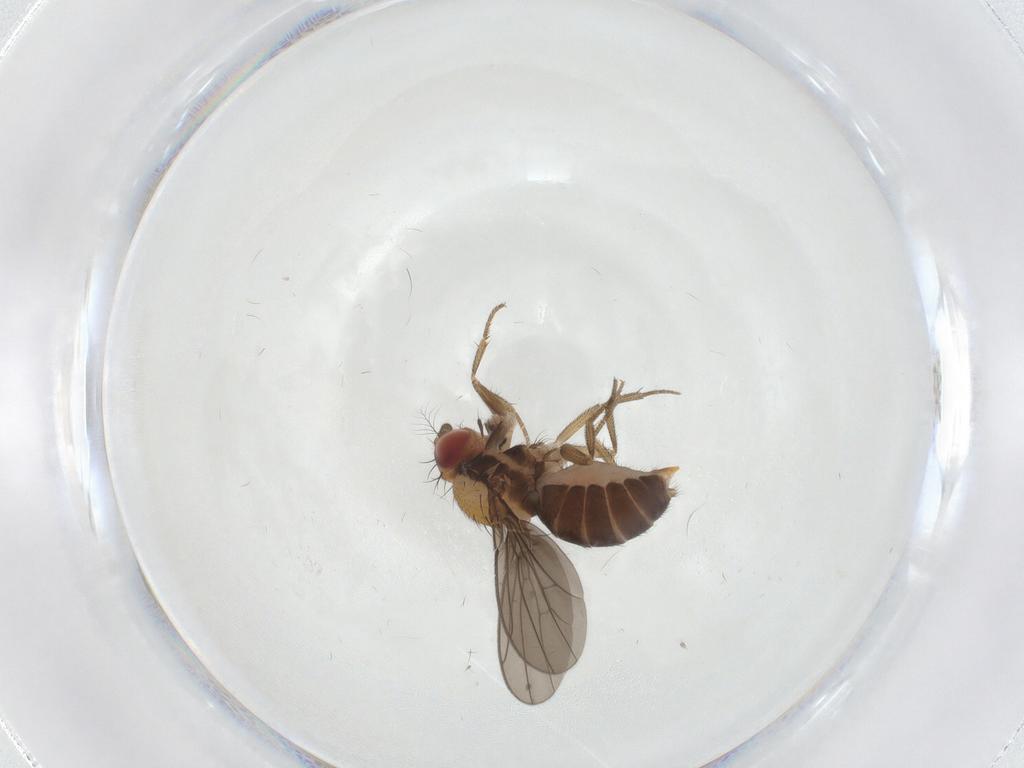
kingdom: Animalia
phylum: Arthropoda
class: Insecta
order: Diptera
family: Drosophilidae
